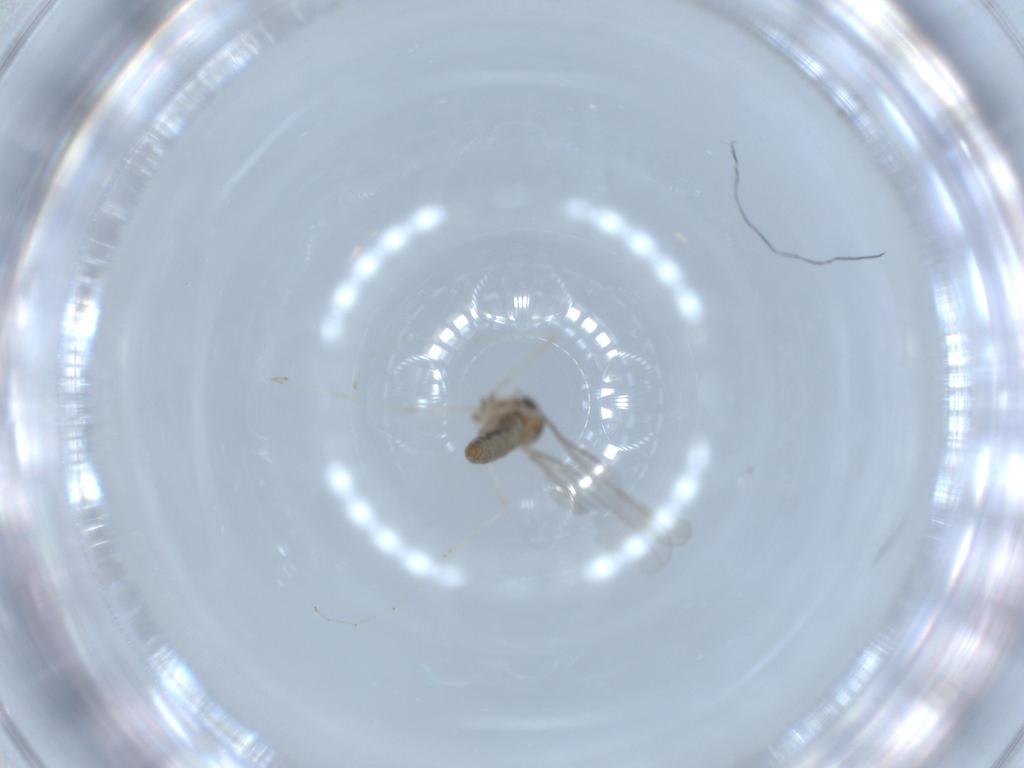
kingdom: Animalia
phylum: Arthropoda
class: Insecta
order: Diptera
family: Cecidomyiidae
